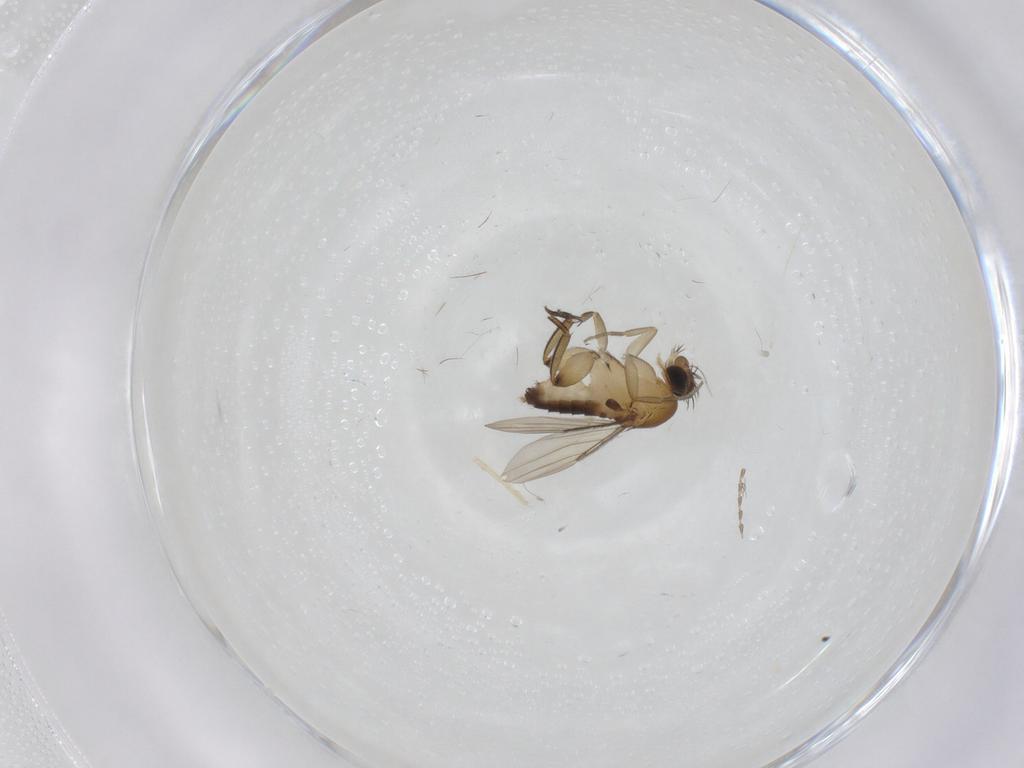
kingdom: Animalia
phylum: Arthropoda
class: Insecta
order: Diptera
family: Phoridae
